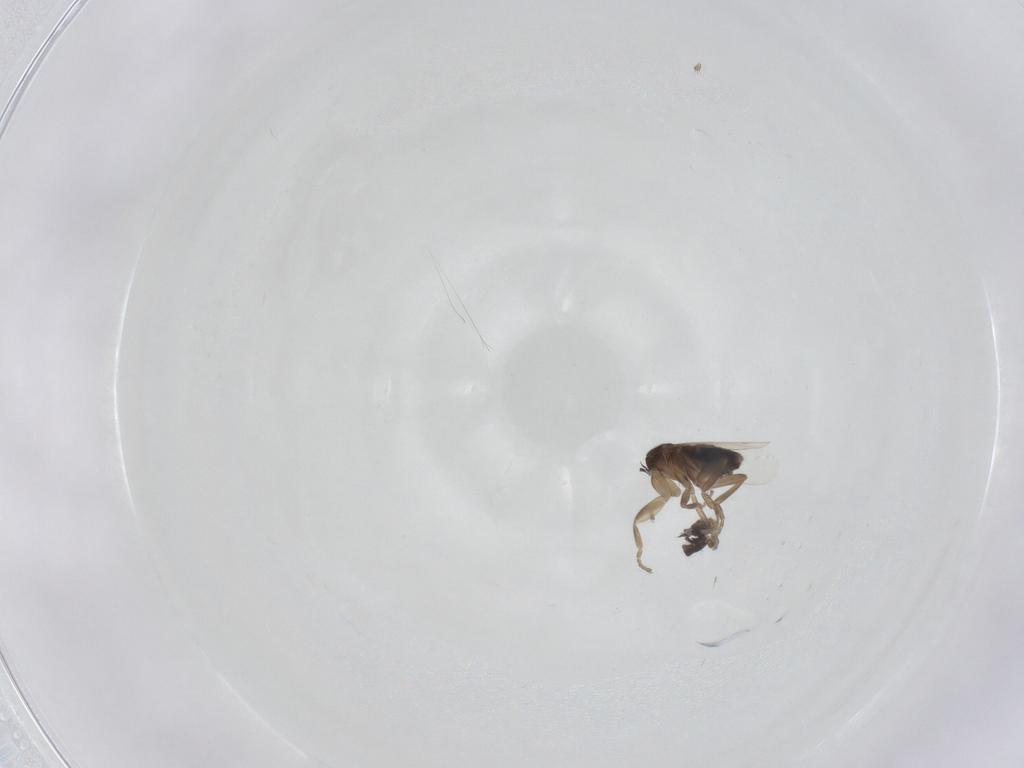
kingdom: Animalia
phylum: Arthropoda
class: Insecta
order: Diptera
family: Phoridae
